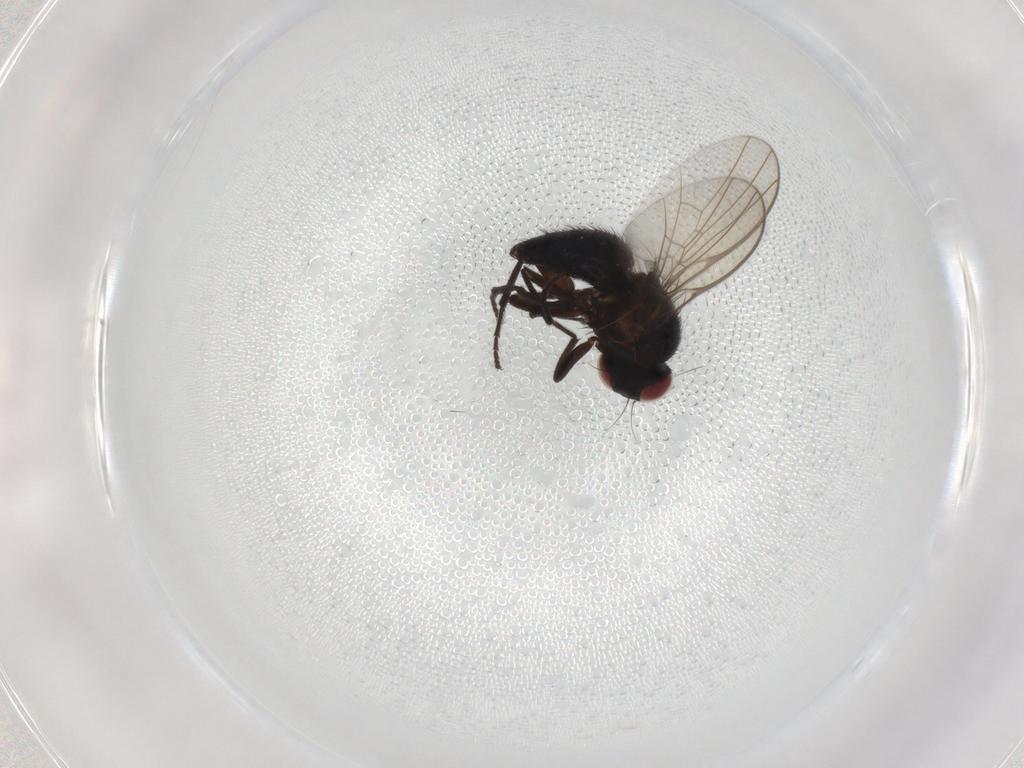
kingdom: Animalia
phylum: Arthropoda
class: Insecta
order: Diptera
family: Agromyzidae
